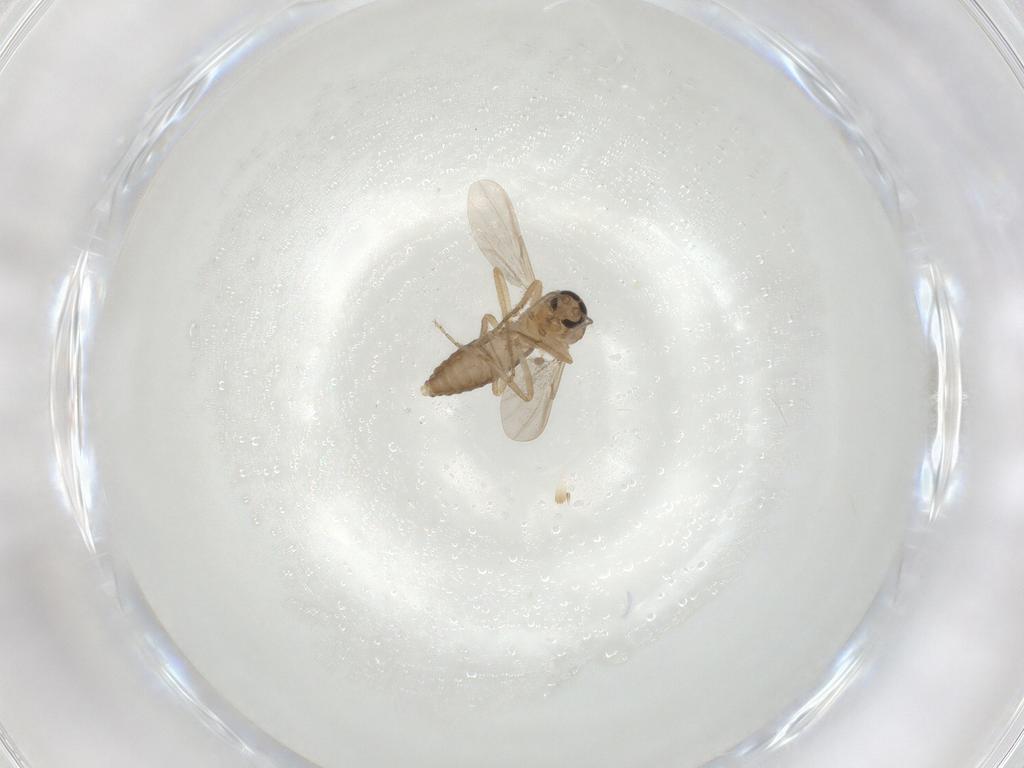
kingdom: Animalia
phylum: Arthropoda
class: Insecta
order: Diptera
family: Ceratopogonidae
